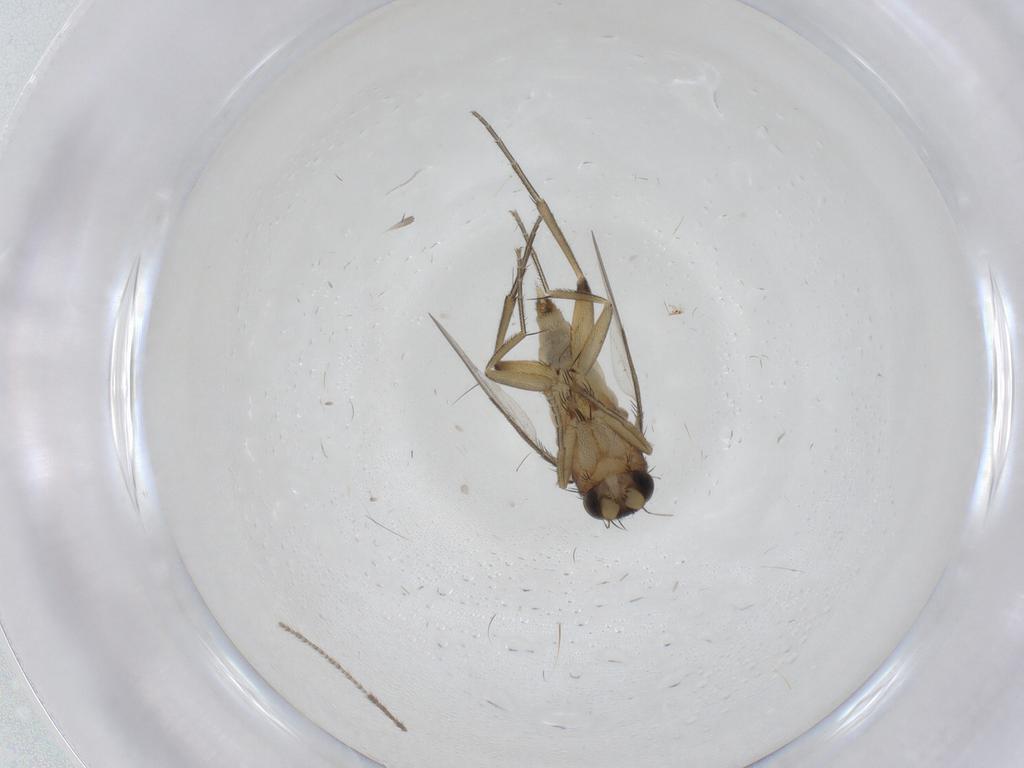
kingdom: Animalia
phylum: Arthropoda
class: Insecta
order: Diptera
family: Phoridae
